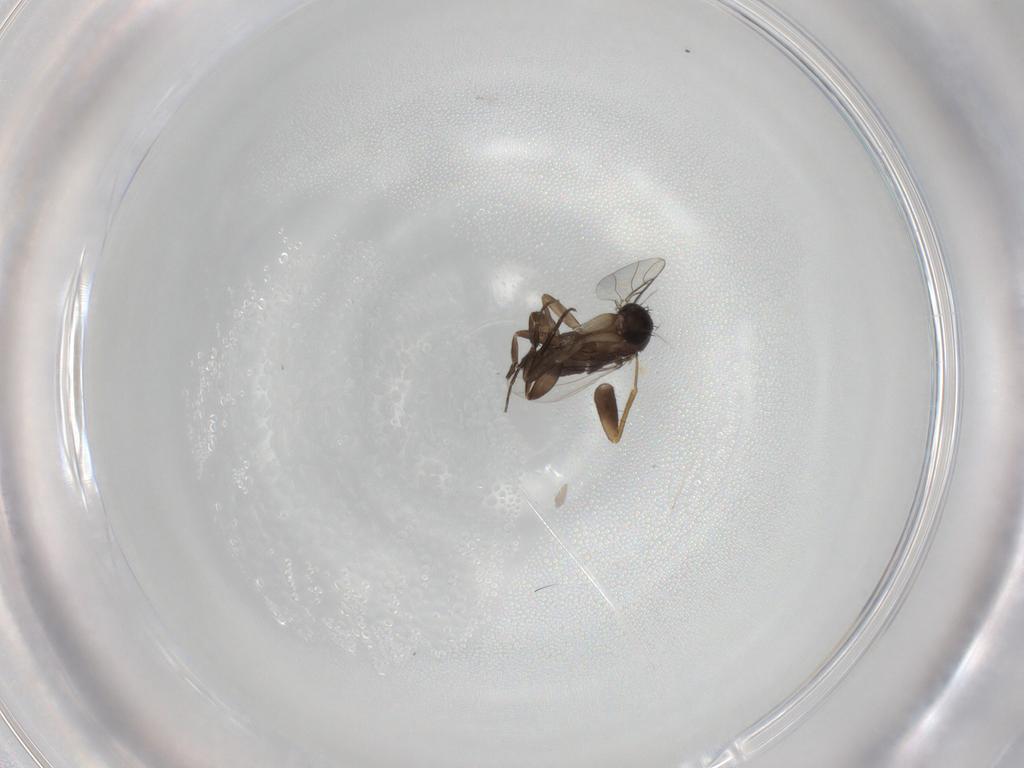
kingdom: Animalia
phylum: Arthropoda
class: Insecta
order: Diptera
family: Phoridae
